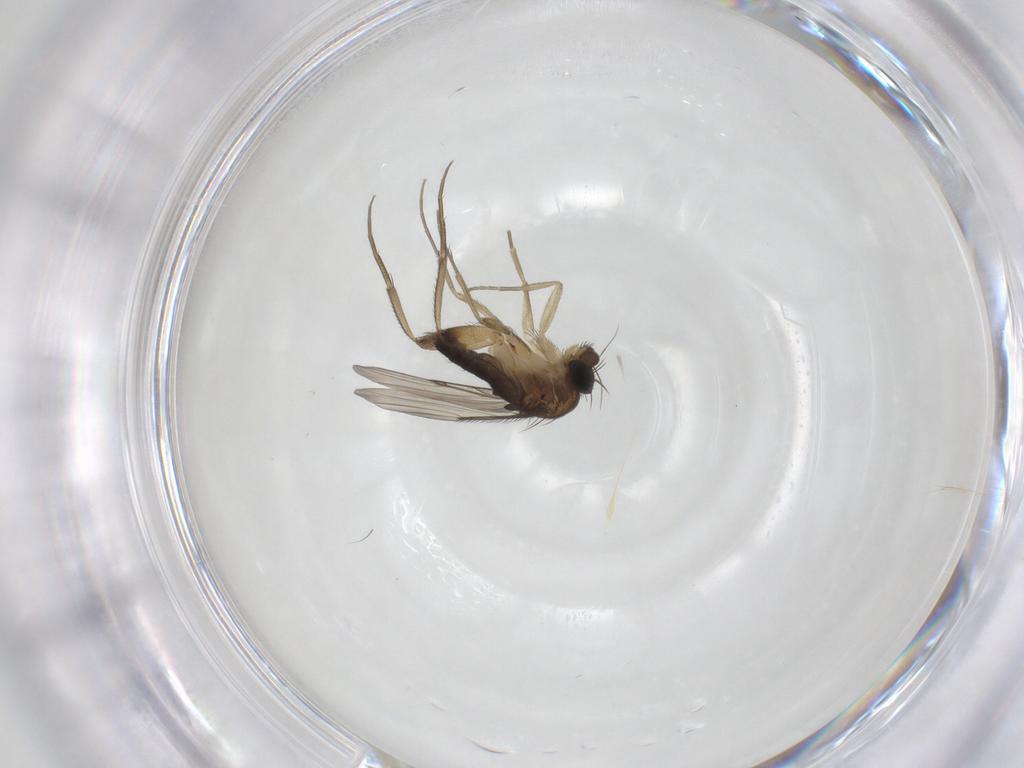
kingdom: Animalia
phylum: Arthropoda
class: Insecta
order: Diptera
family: Phoridae
